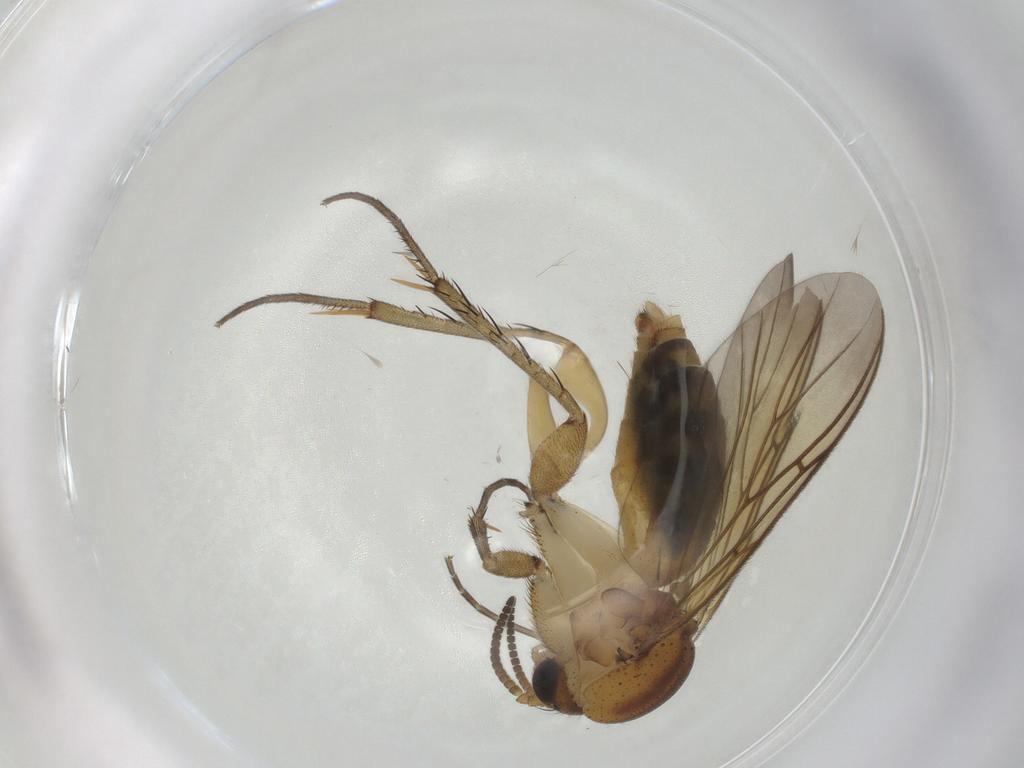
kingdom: Animalia
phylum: Arthropoda
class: Insecta
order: Diptera
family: Mycetophilidae
